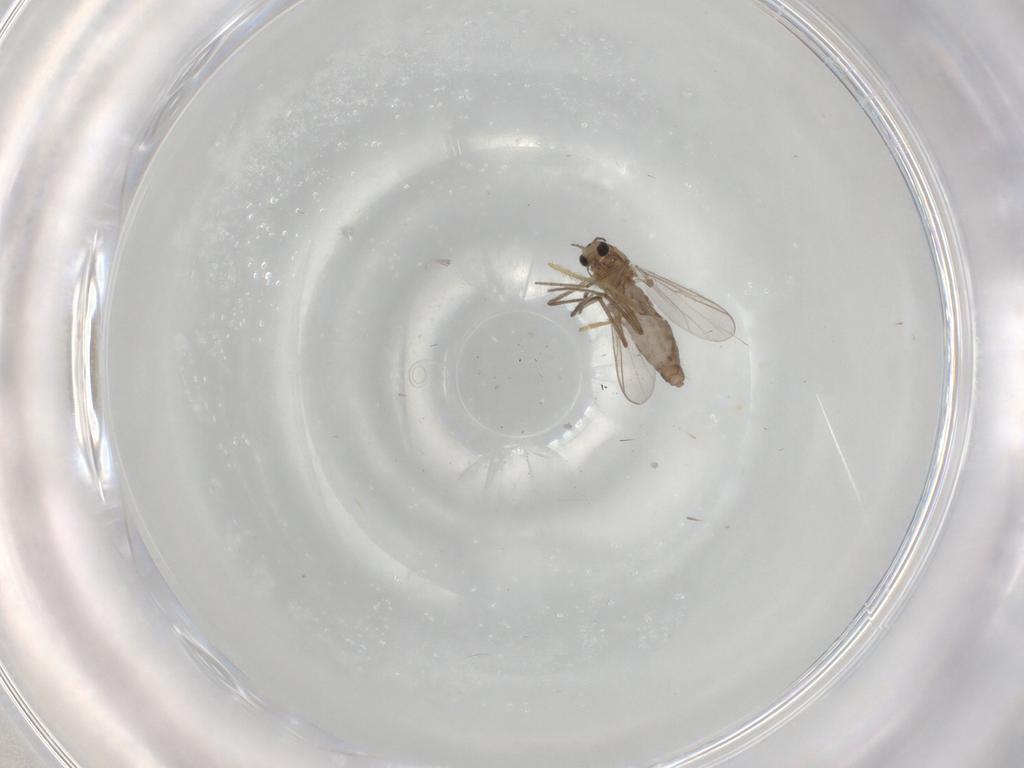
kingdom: Animalia
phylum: Arthropoda
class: Insecta
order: Diptera
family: Chironomidae
